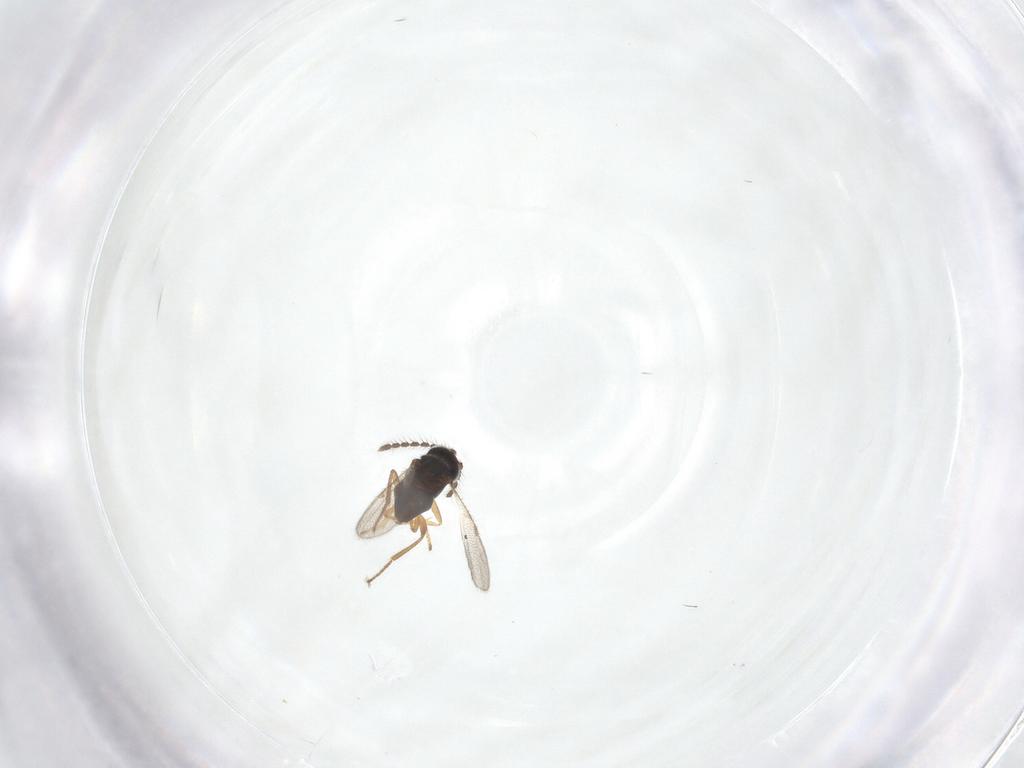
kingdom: Animalia
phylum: Arthropoda
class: Insecta
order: Hymenoptera
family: Encyrtidae
